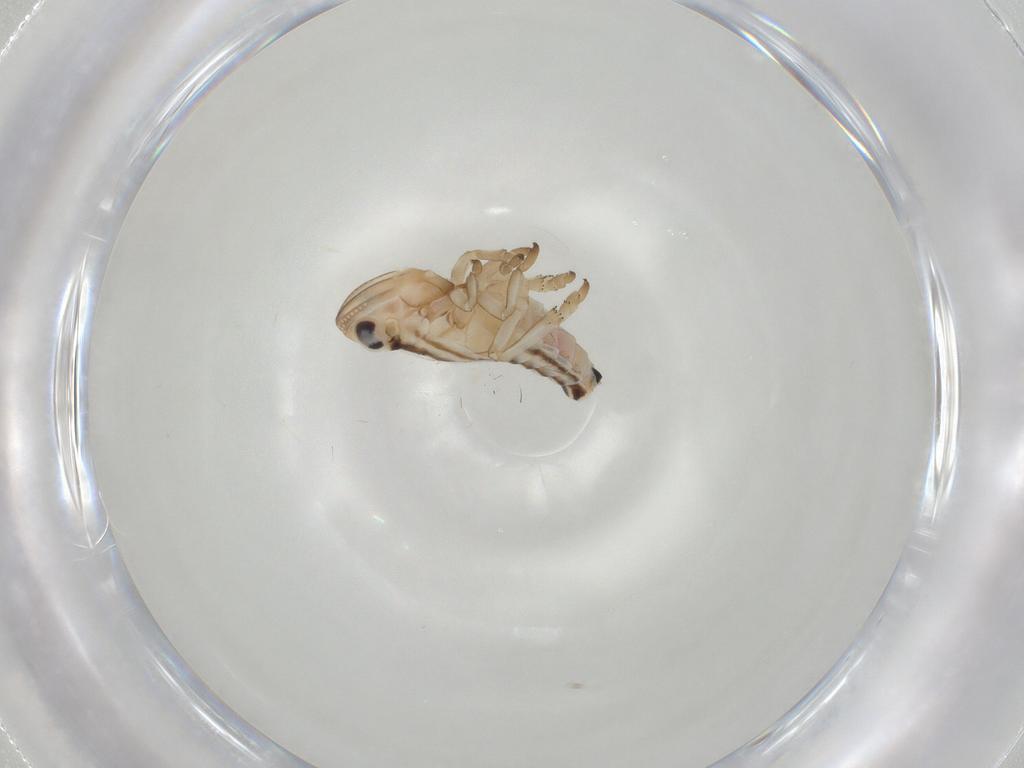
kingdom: Animalia
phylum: Arthropoda
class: Insecta
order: Hemiptera
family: Fulgoroidea_incertae_sedis
